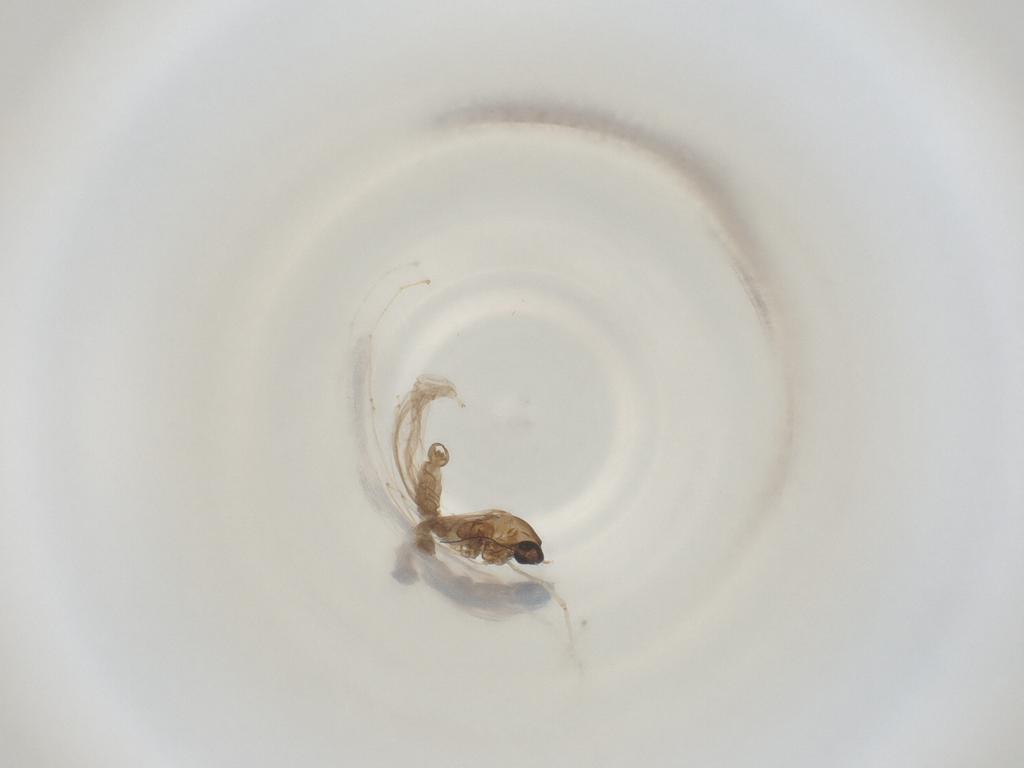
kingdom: Animalia
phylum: Arthropoda
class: Insecta
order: Diptera
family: Cecidomyiidae
